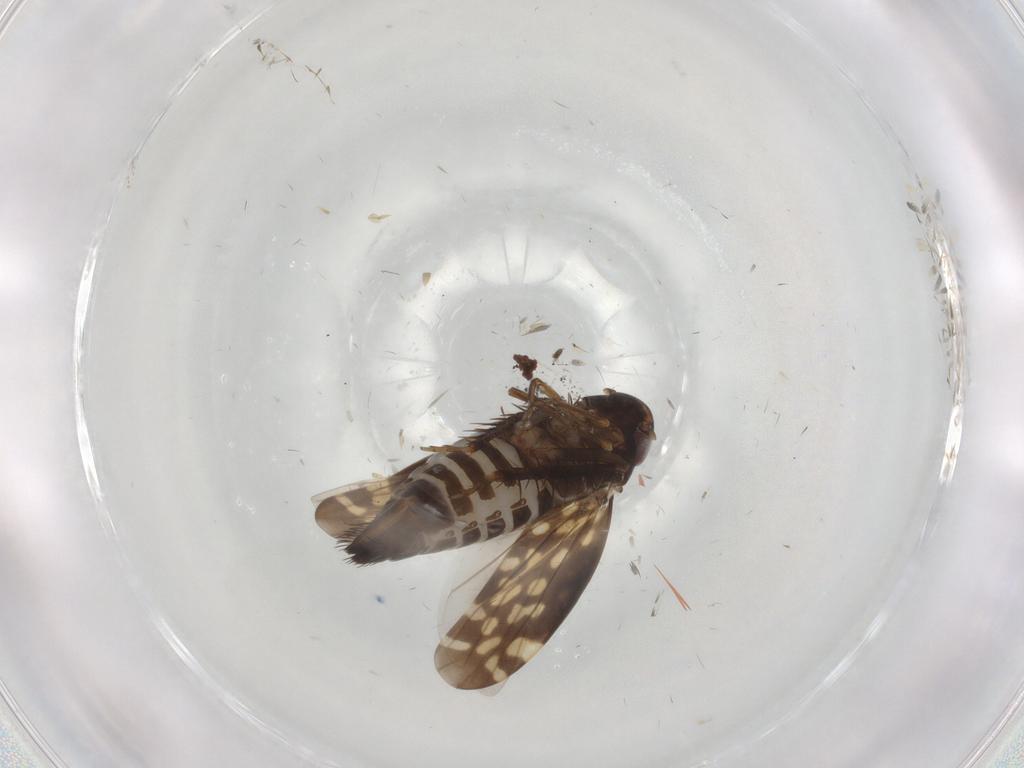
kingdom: Animalia
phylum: Arthropoda
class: Insecta
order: Hemiptera
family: Cicadellidae
